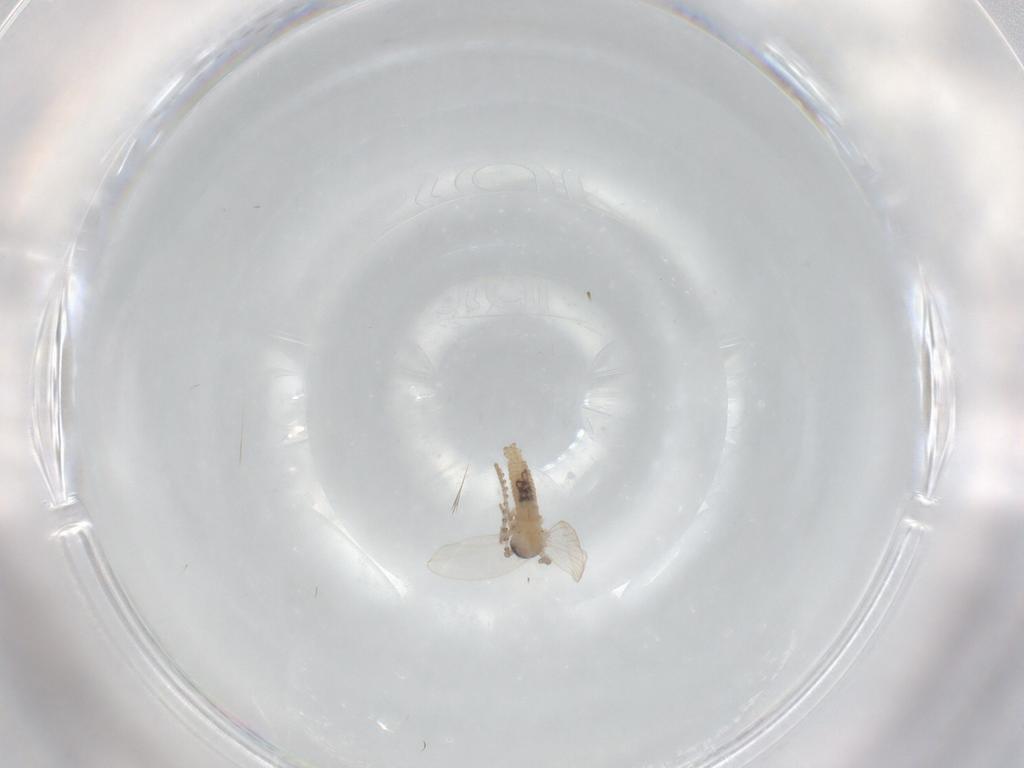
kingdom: Animalia
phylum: Arthropoda
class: Insecta
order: Diptera
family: Psychodidae
